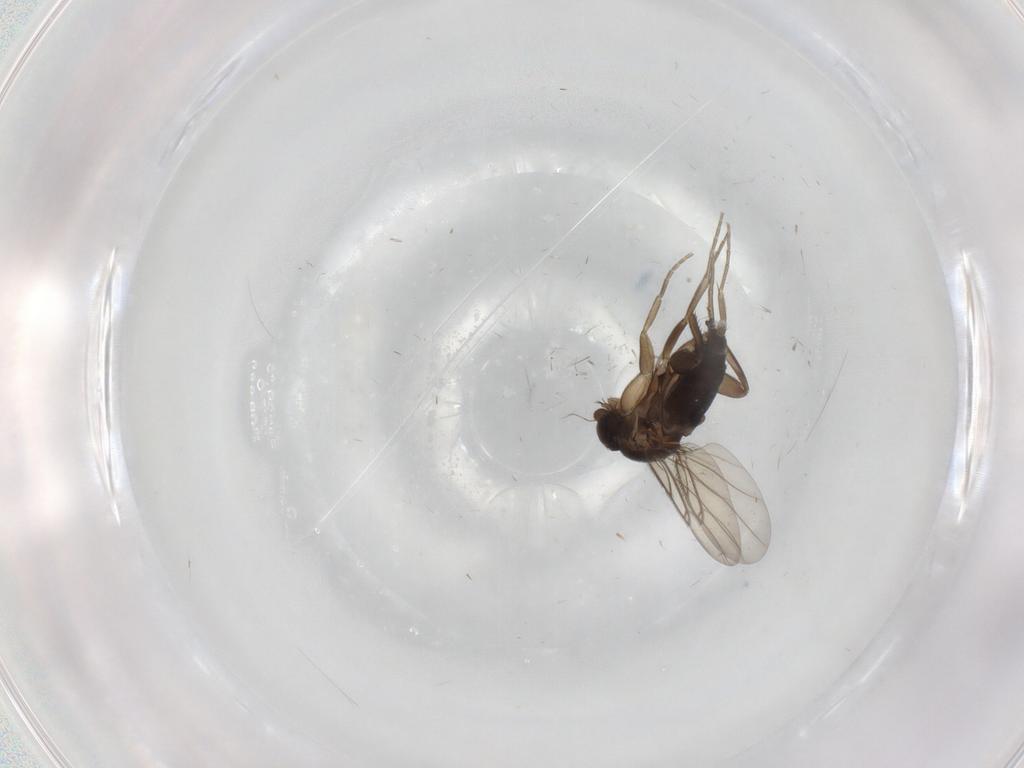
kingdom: Animalia
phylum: Arthropoda
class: Insecta
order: Diptera
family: Phoridae
